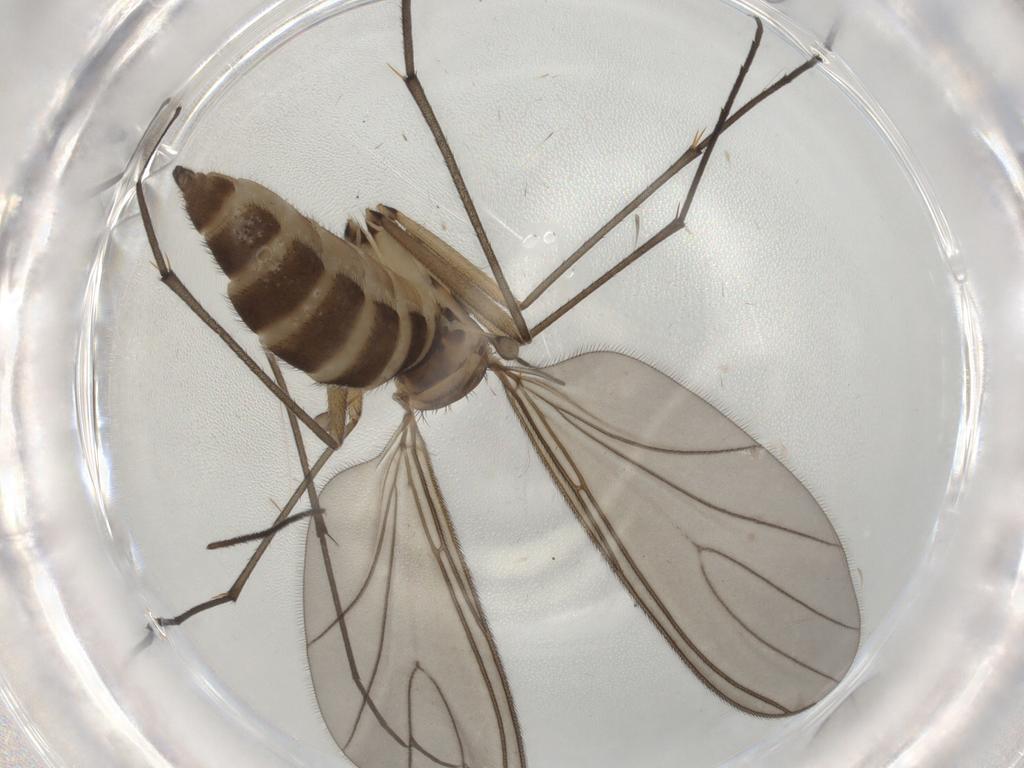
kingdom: Animalia
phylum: Arthropoda
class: Insecta
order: Diptera
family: Sciaridae
